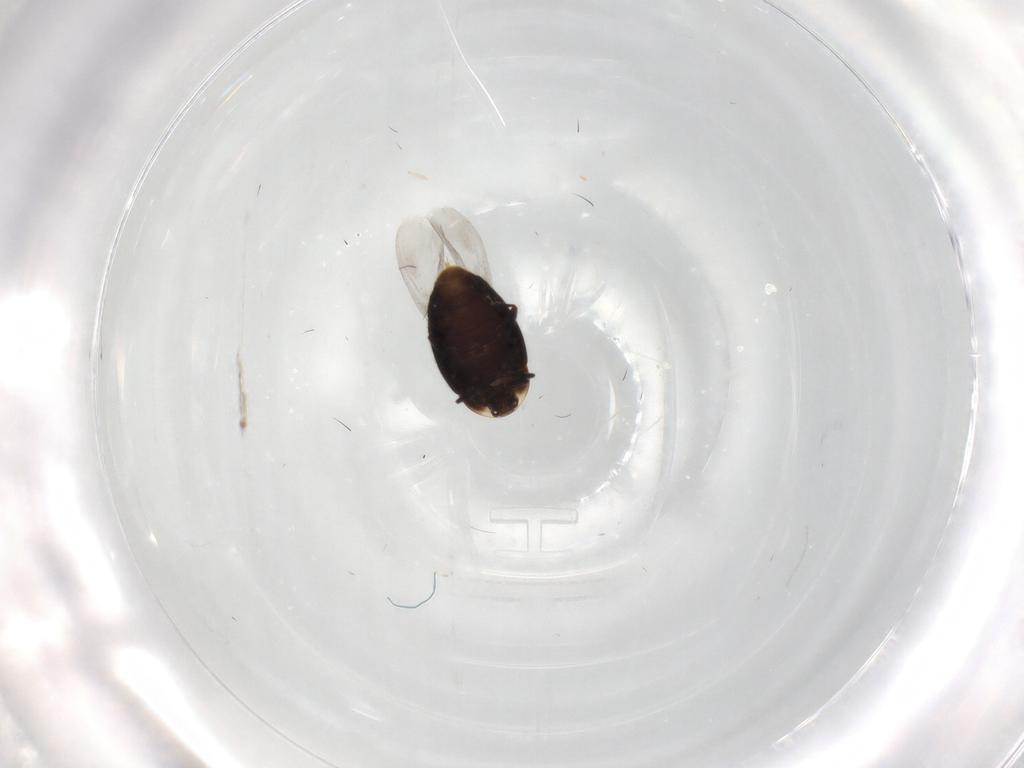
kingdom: Animalia
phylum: Arthropoda
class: Insecta
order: Coleoptera
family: Corylophidae
